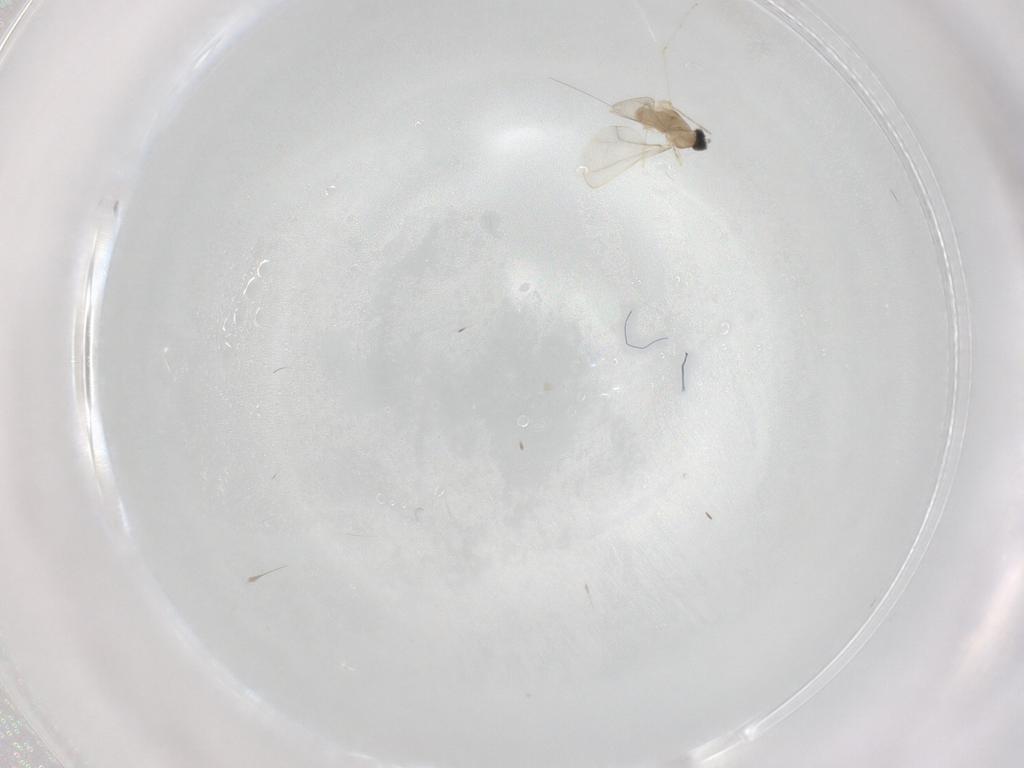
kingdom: Animalia
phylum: Arthropoda
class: Insecta
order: Diptera
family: Cecidomyiidae
